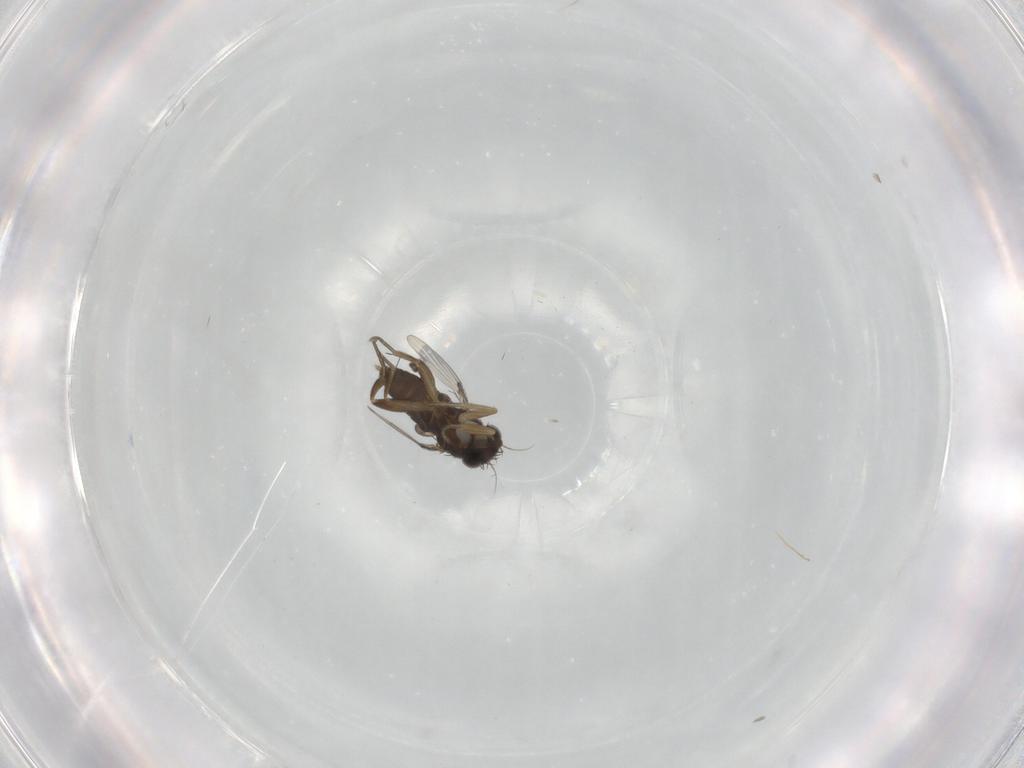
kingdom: Animalia
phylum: Arthropoda
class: Insecta
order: Diptera
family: Phoridae
